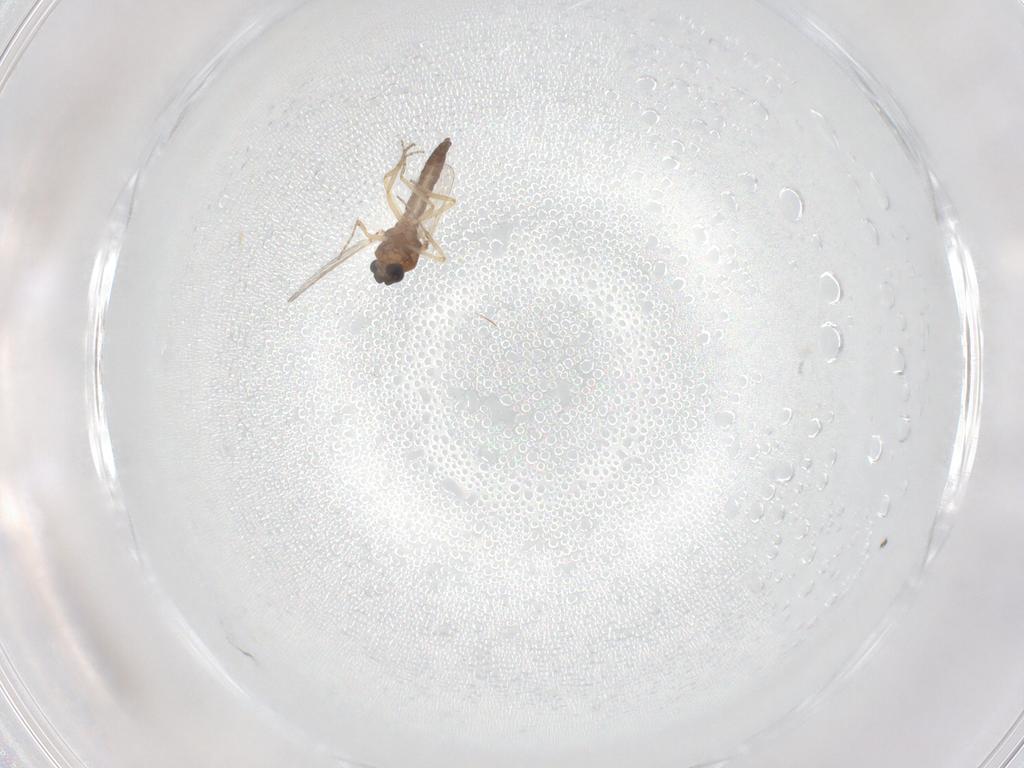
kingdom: Animalia
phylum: Arthropoda
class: Insecta
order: Diptera
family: Ceratopogonidae
